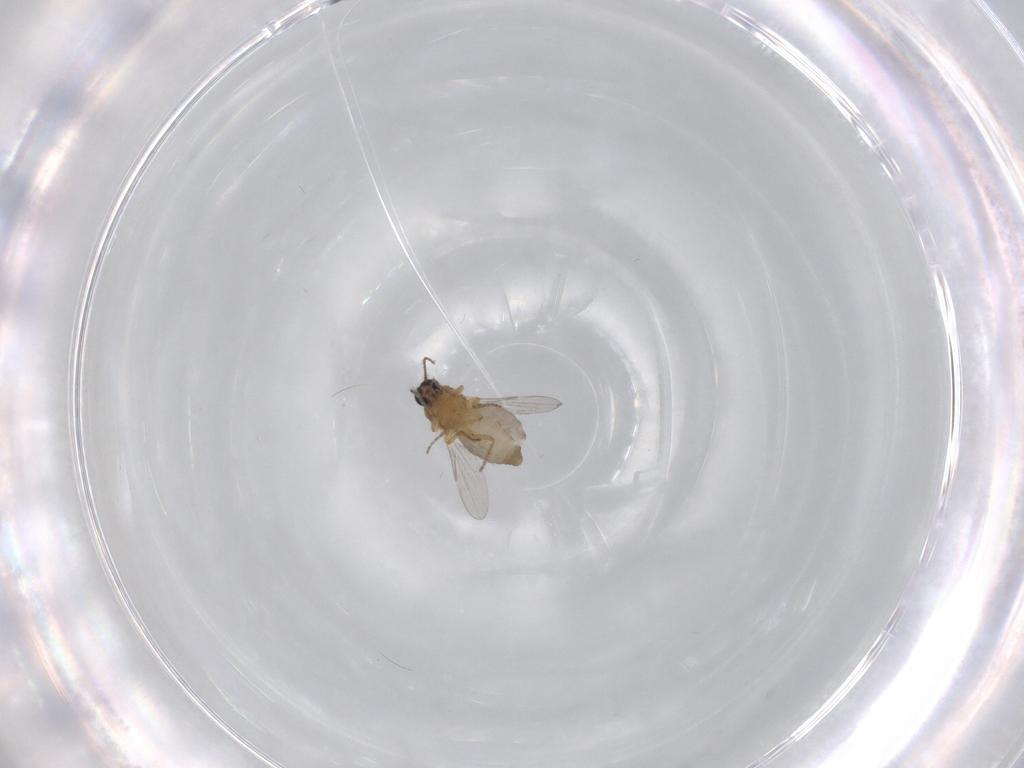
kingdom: Animalia
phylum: Arthropoda
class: Insecta
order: Diptera
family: Ceratopogonidae
